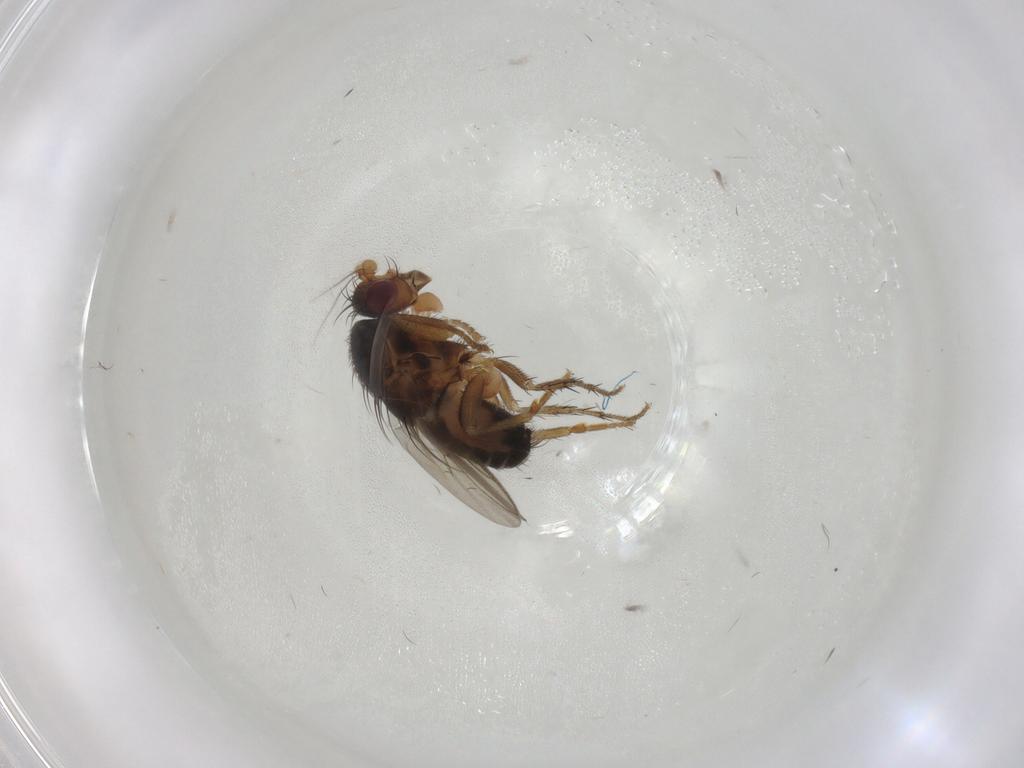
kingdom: Animalia
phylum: Arthropoda
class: Insecta
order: Diptera
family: Sphaeroceridae
